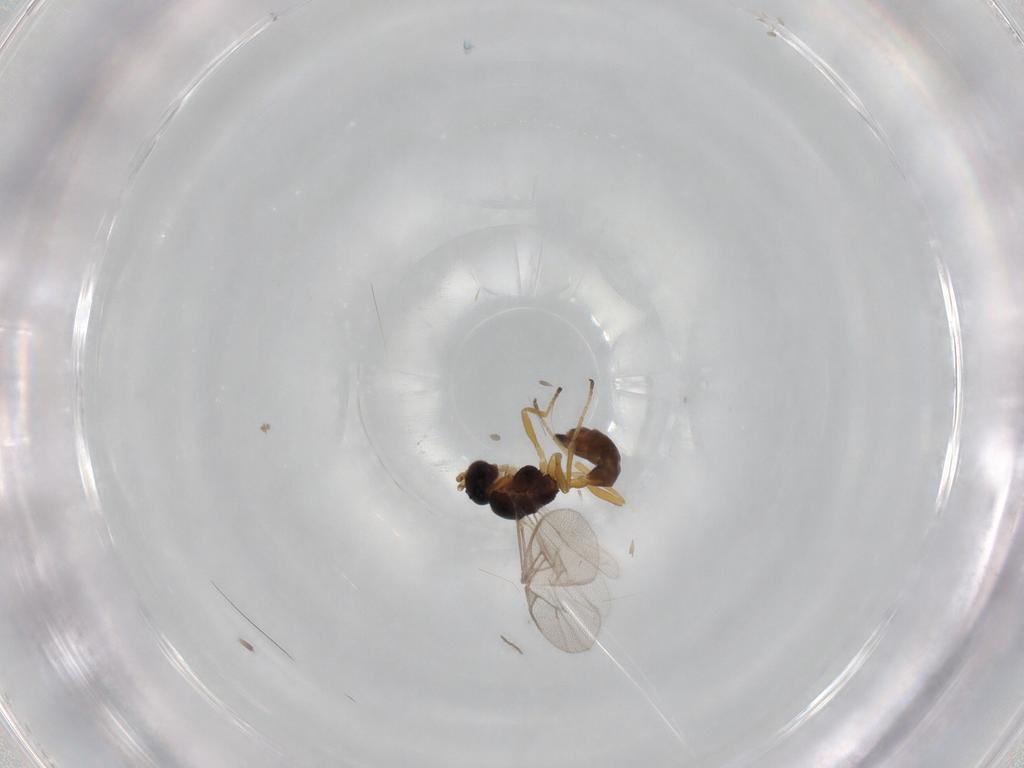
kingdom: Animalia
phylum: Arthropoda
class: Insecta
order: Hymenoptera
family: Braconidae
